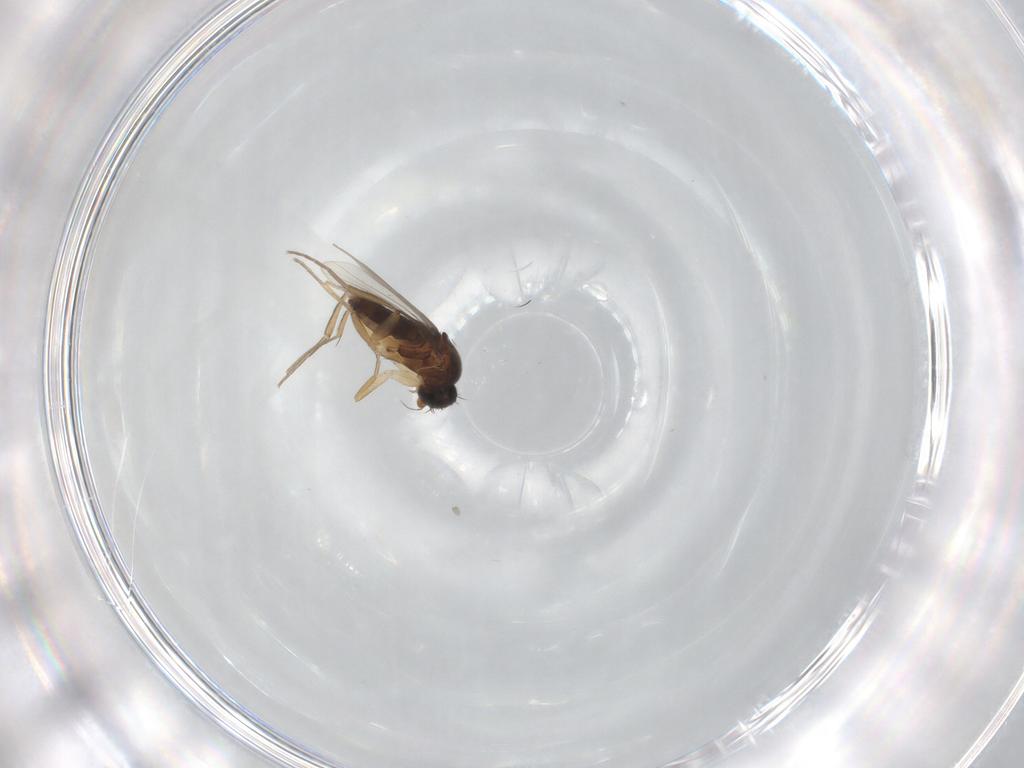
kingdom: Animalia
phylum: Arthropoda
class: Insecta
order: Diptera
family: Phoridae
